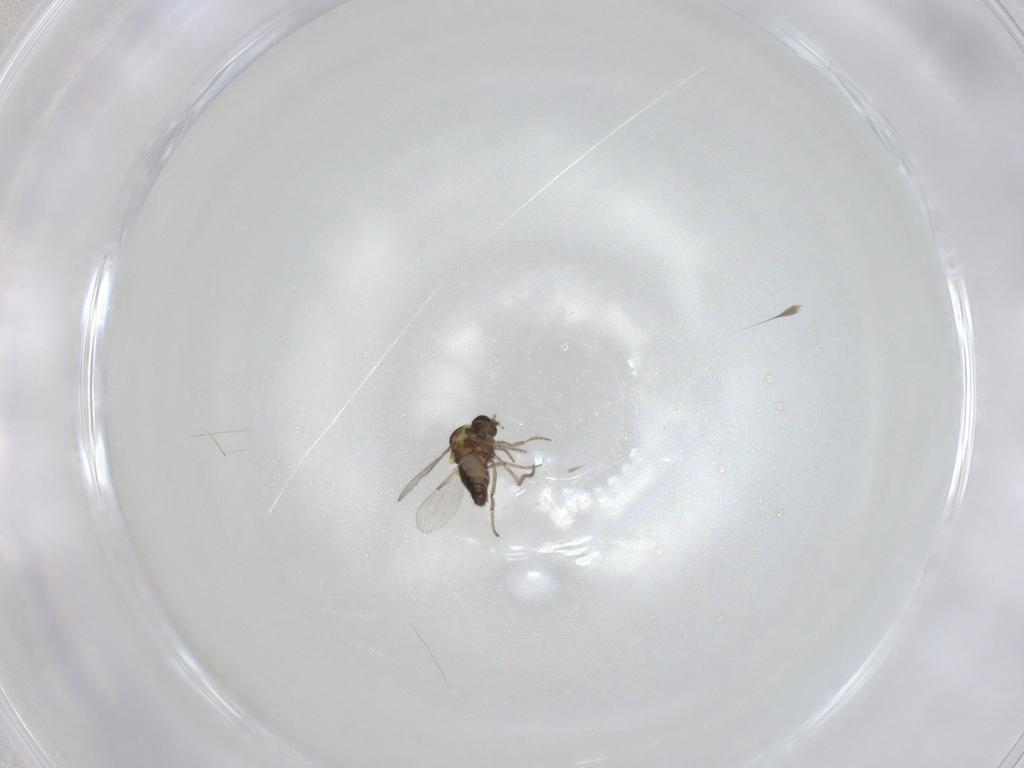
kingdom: Animalia
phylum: Arthropoda
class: Insecta
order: Diptera
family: Ceratopogonidae
